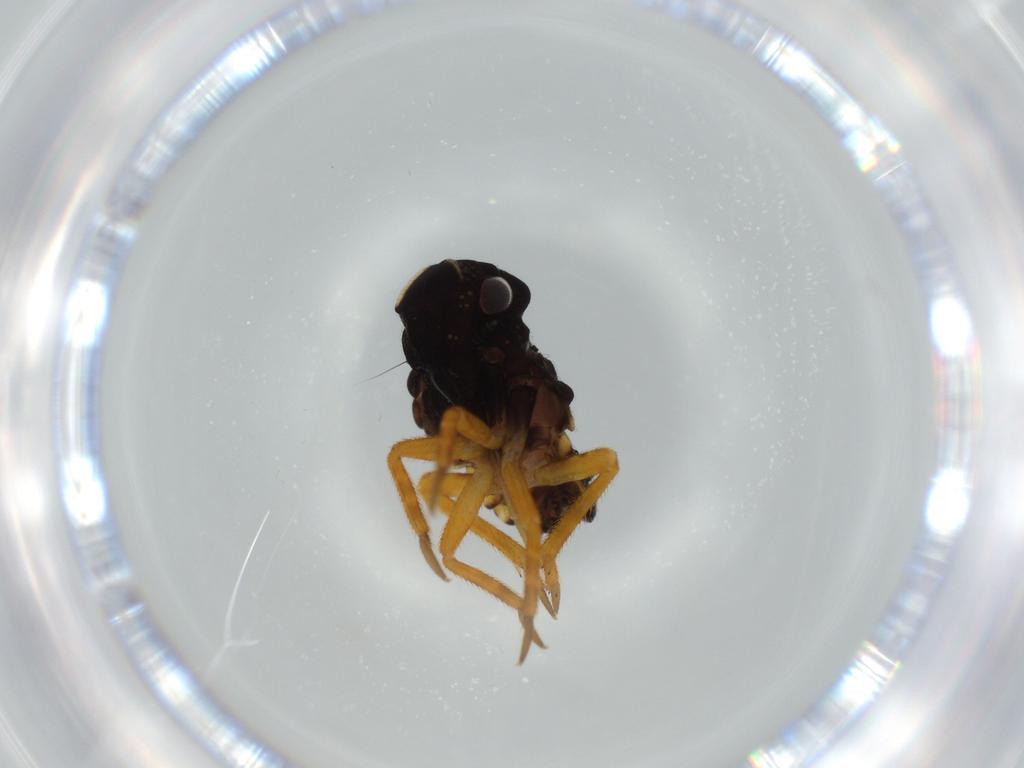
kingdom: Animalia
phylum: Arthropoda
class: Insecta
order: Hemiptera
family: Fulgoridae
